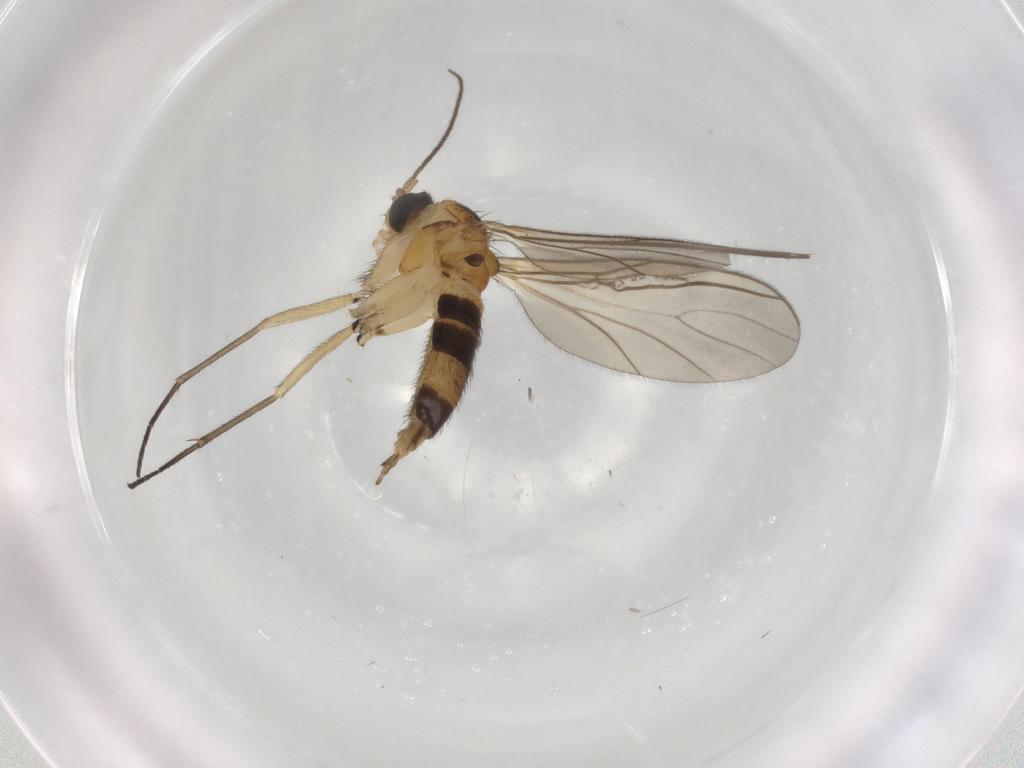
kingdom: Animalia
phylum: Arthropoda
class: Insecta
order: Diptera
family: Sciaridae
